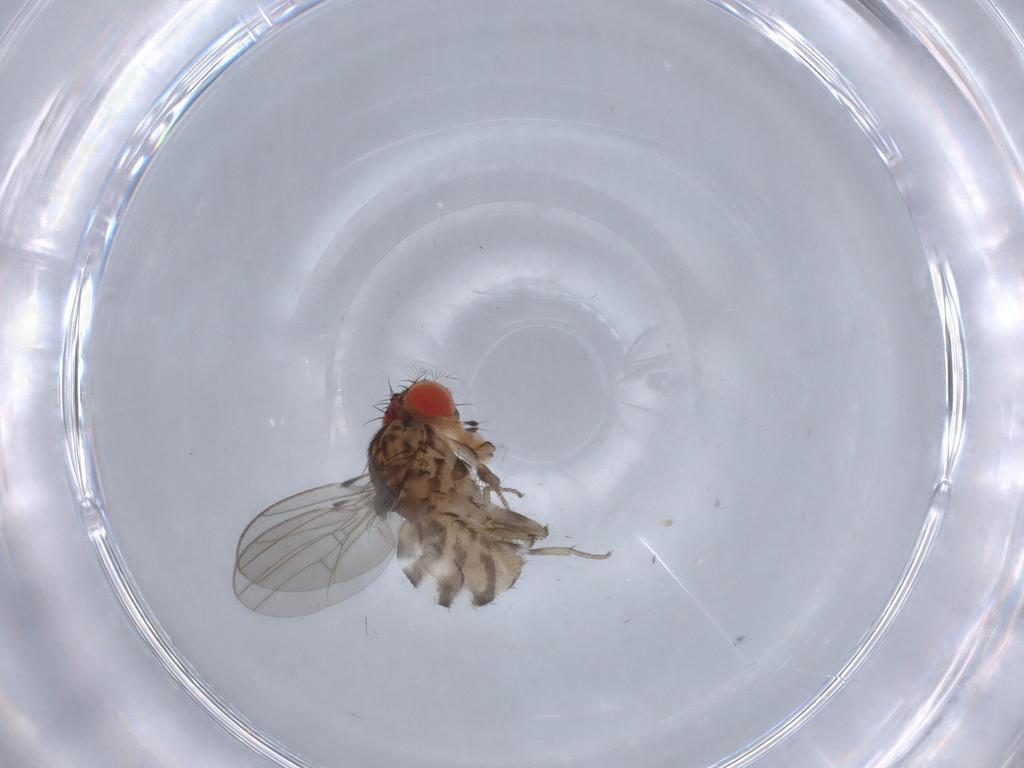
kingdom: Animalia
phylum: Arthropoda
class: Insecta
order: Diptera
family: Drosophilidae
